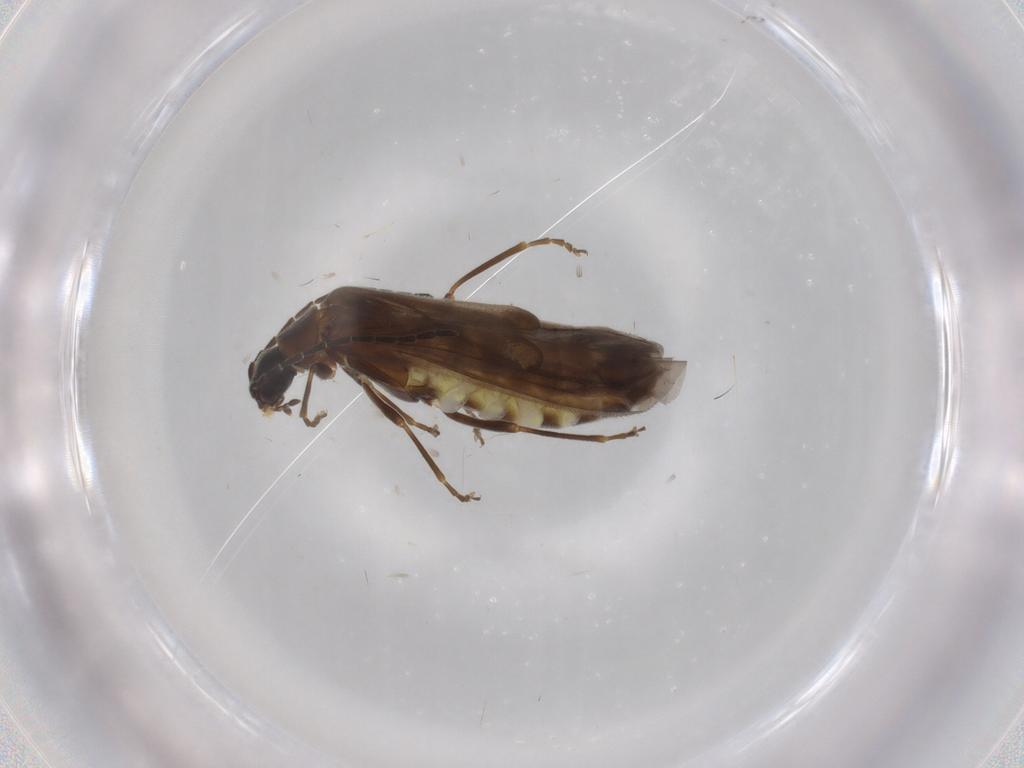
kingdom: Animalia
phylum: Arthropoda
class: Insecta
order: Coleoptera
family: Cantharidae
